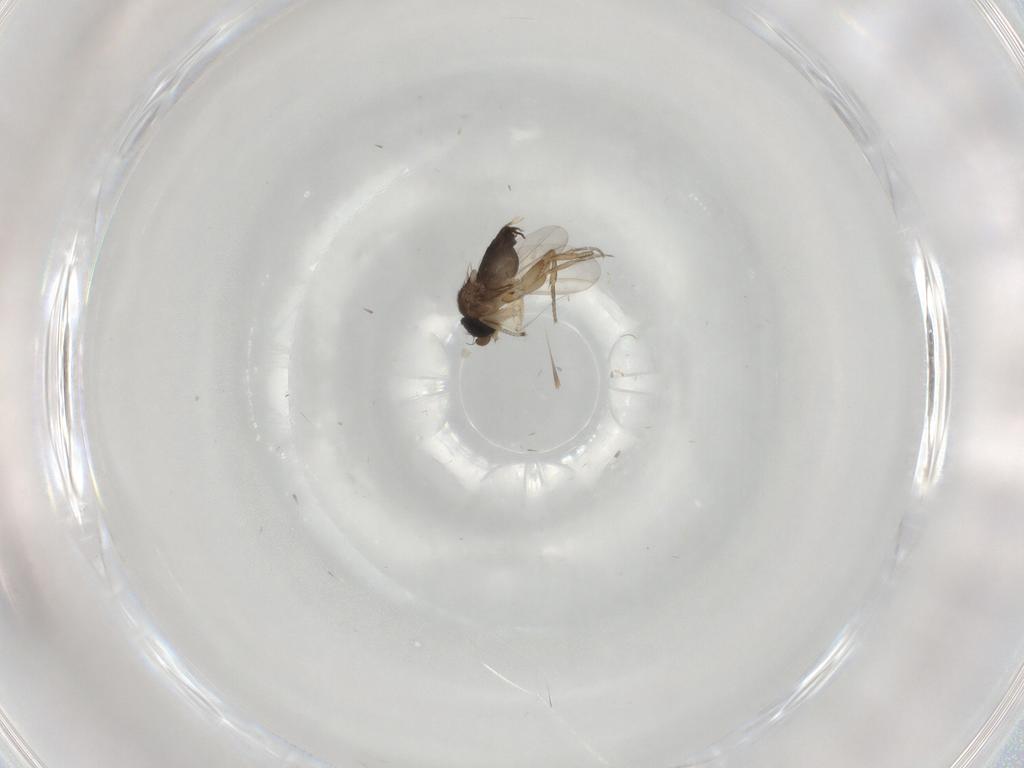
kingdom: Animalia
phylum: Arthropoda
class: Insecta
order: Diptera
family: Phoridae
